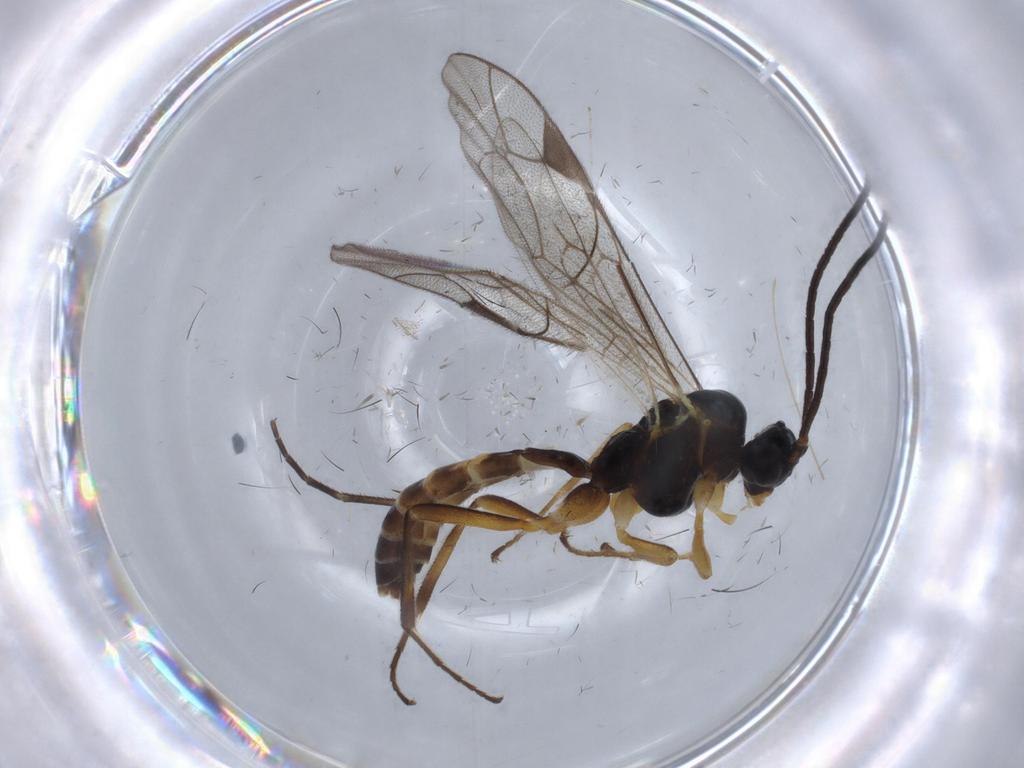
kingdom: Animalia
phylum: Arthropoda
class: Insecta
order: Hymenoptera
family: Ichneumonidae
